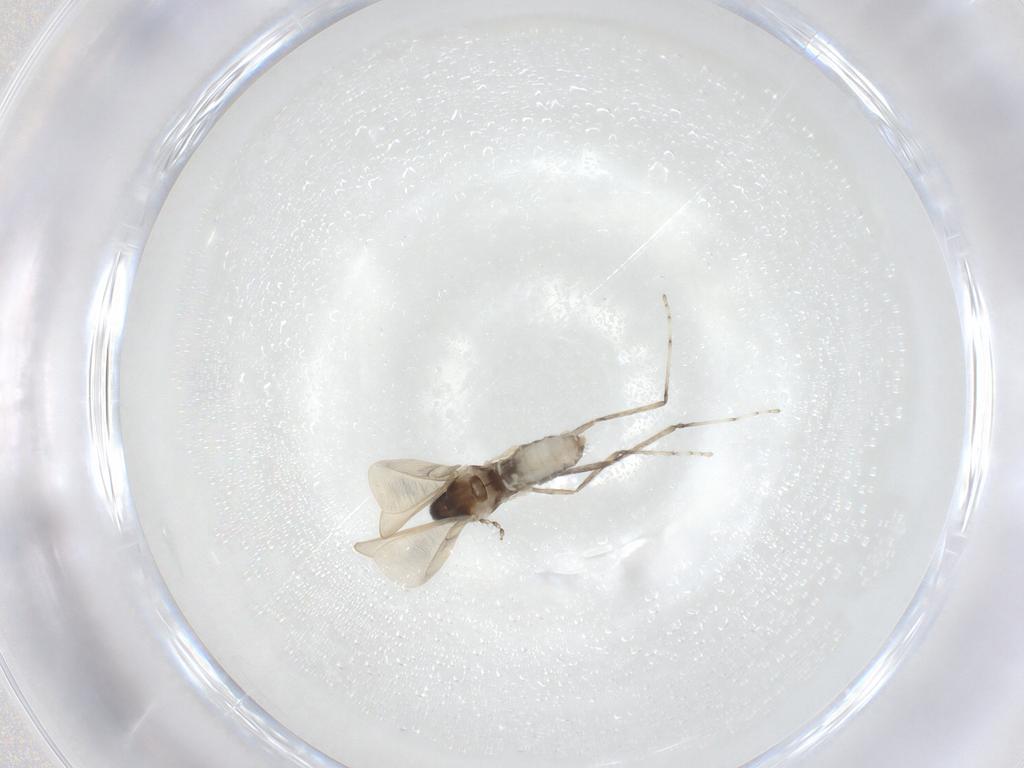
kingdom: Animalia
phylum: Arthropoda
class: Insecta
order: Diptera
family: Cecidomyiidae
